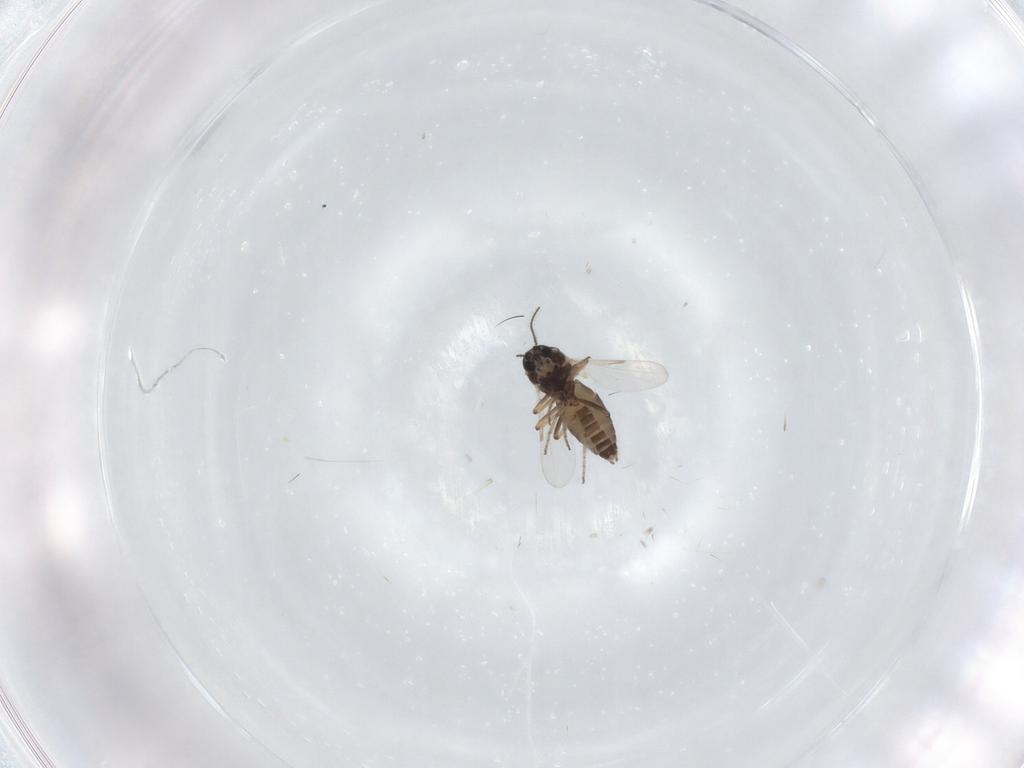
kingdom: Animalia
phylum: Arthropoda
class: Insecta
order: Diptera
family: Ceratopogonidae
